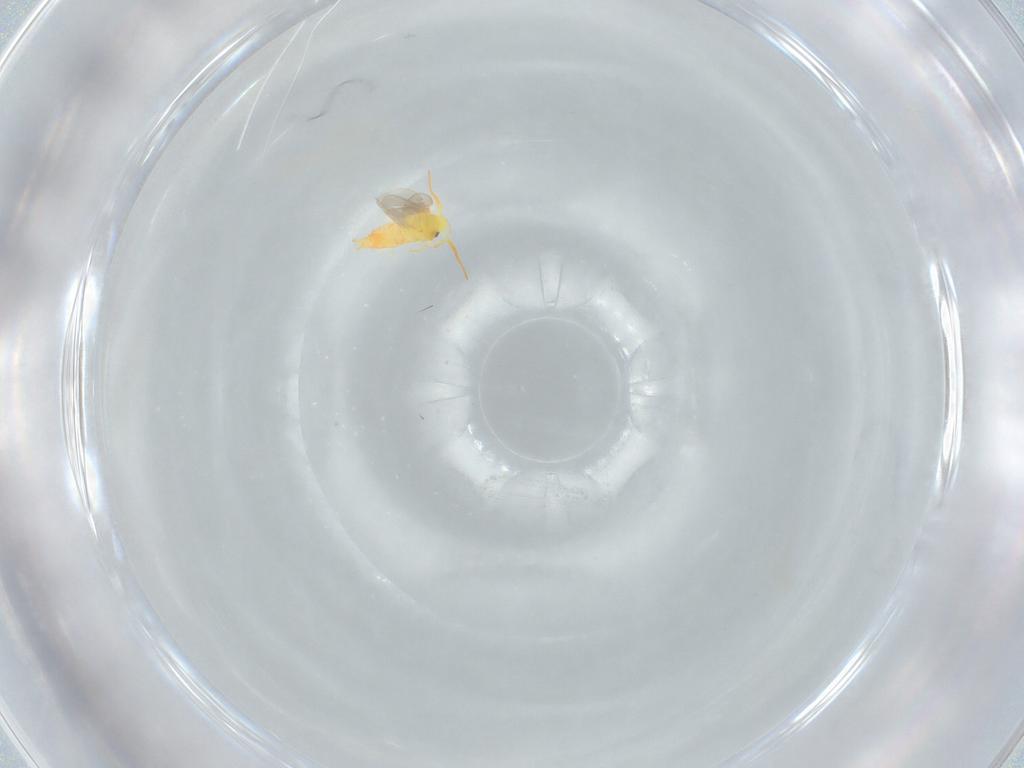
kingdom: Animalia
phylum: Arthropoda
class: Insecta
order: Hemiptera
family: Aleyrodidae
